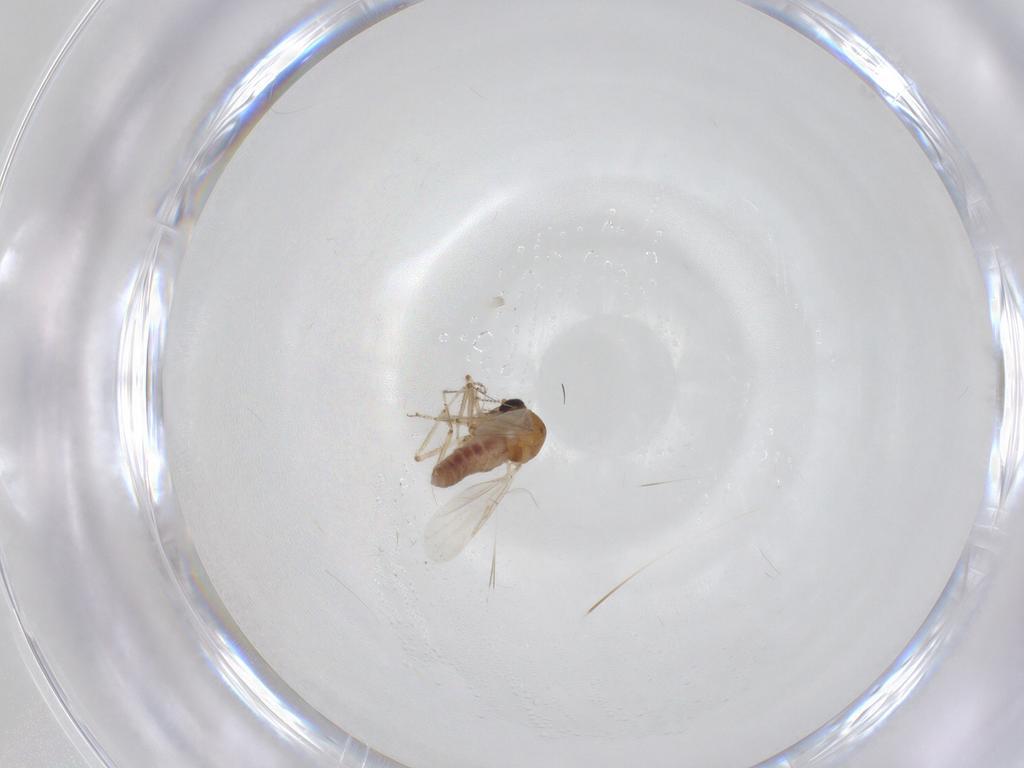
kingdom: Animalia
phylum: Arthropoda
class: Insecta
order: Diptera
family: Ceratopogonidae
